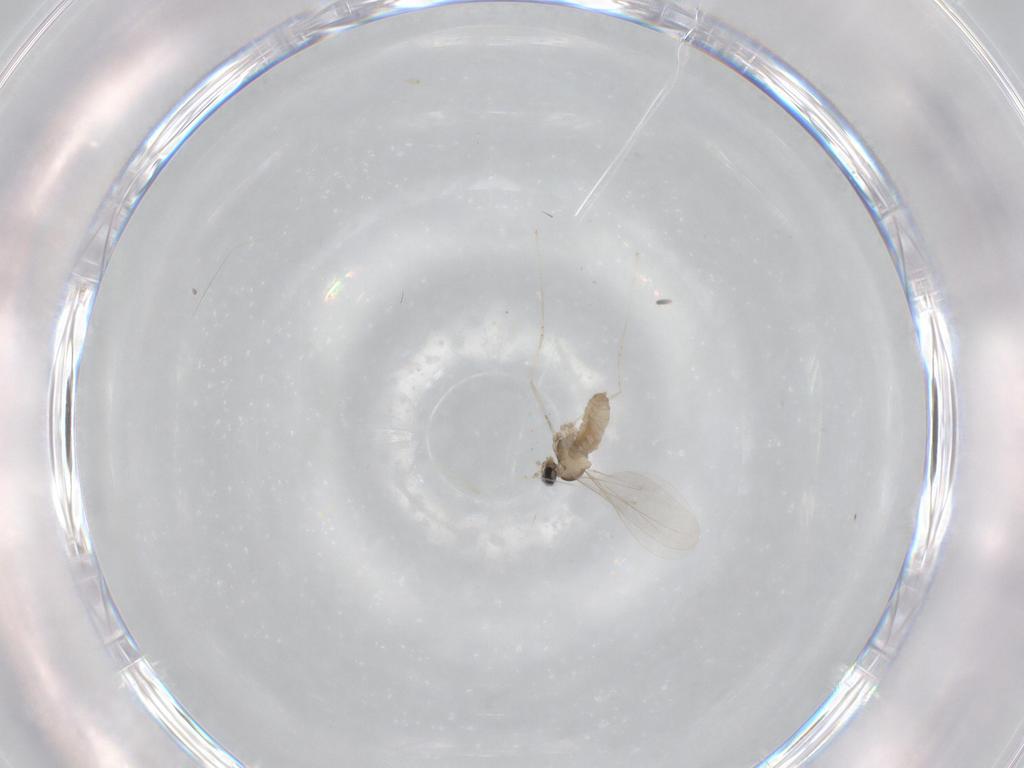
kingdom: Animalia
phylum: Arthropoda
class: Insecta
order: Diptera
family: Cecidomyiidae
